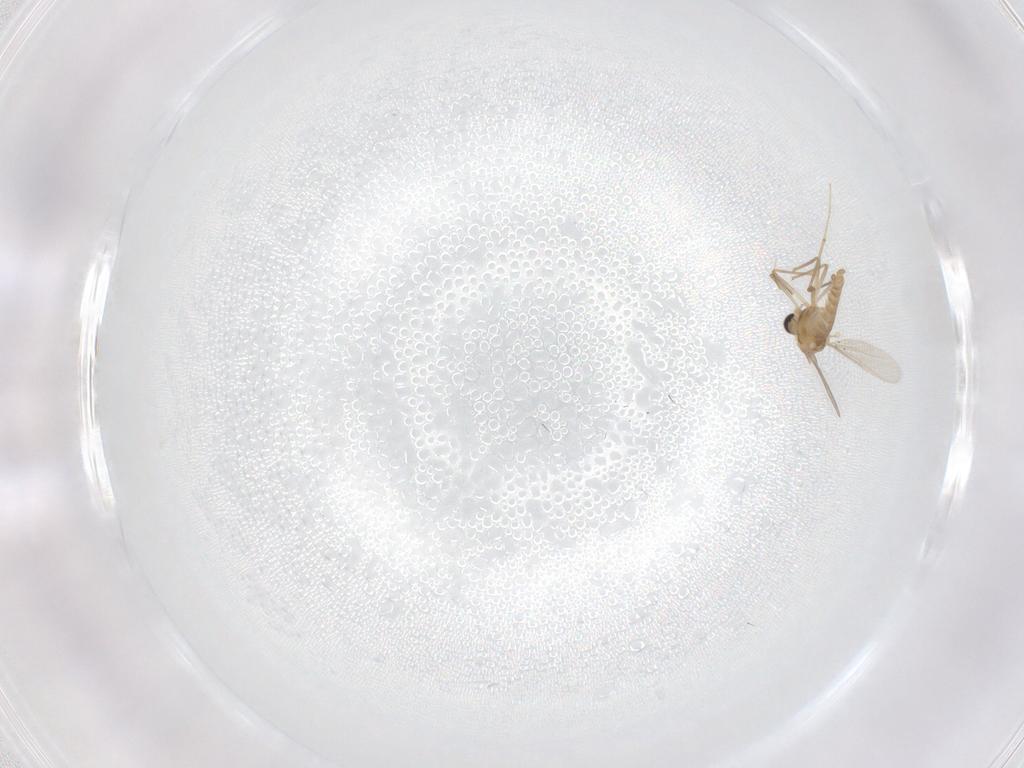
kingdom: Animalia
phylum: Arthropoda
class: Insecta
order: Diptera
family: Chironomidae
